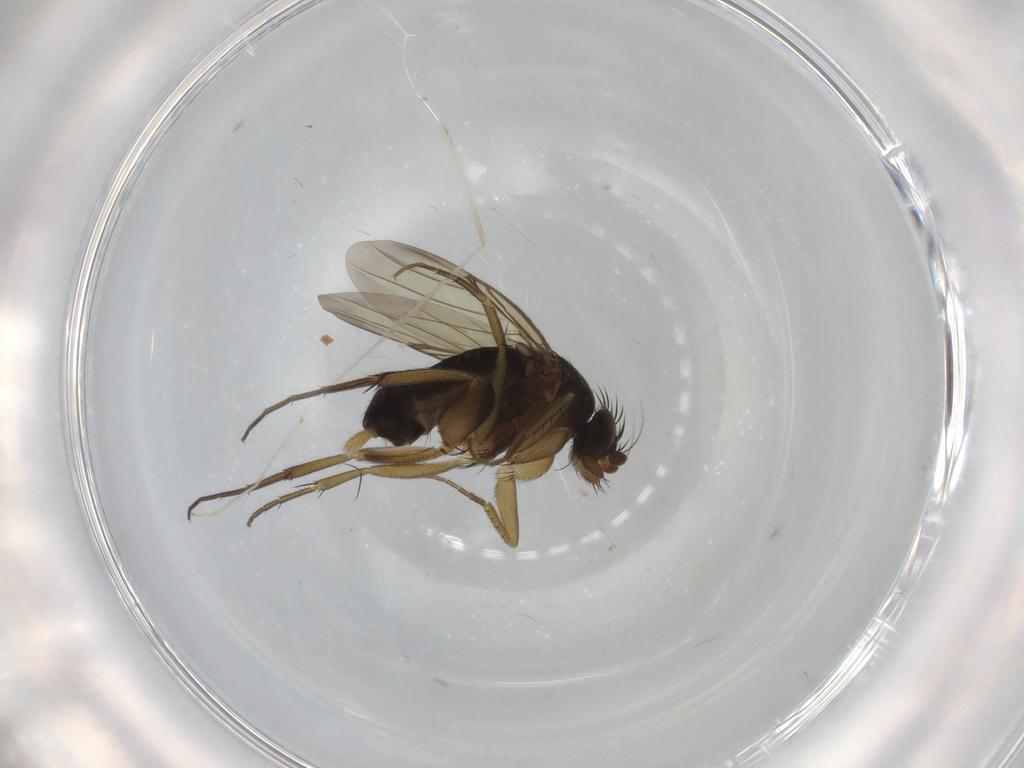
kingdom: Animalia
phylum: Arthropoda
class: Insecta
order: Diptera
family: Phoridae
